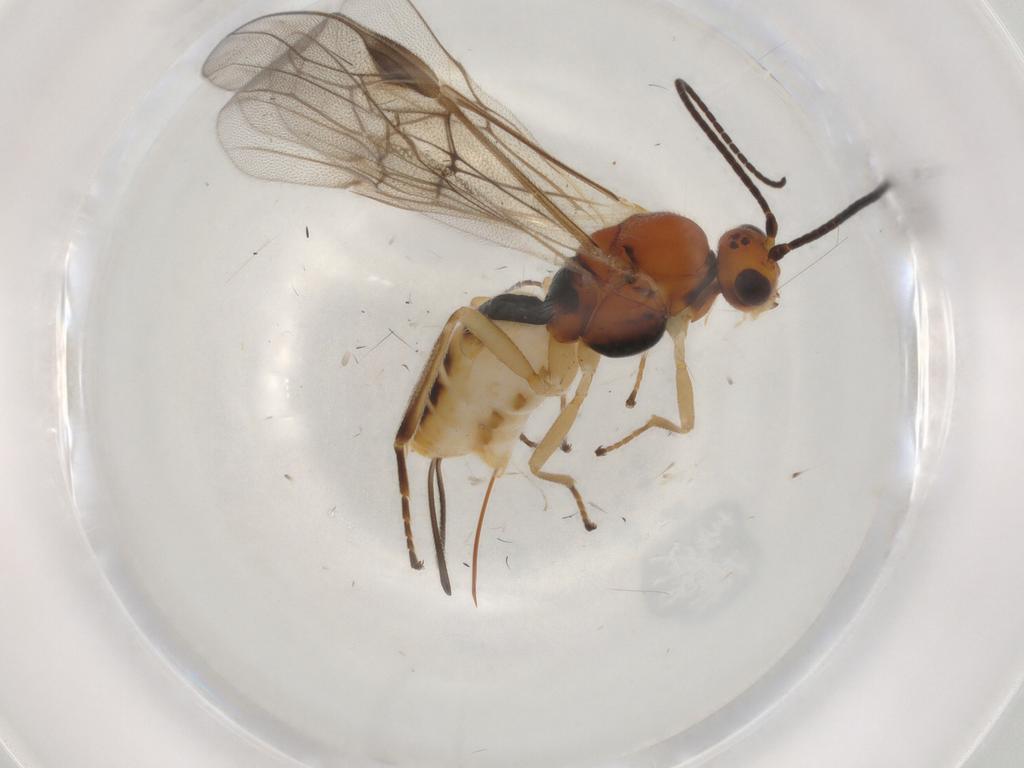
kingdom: Animalia
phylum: Arthropoda
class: Insecta
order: Hymenoptera
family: Braconidae
